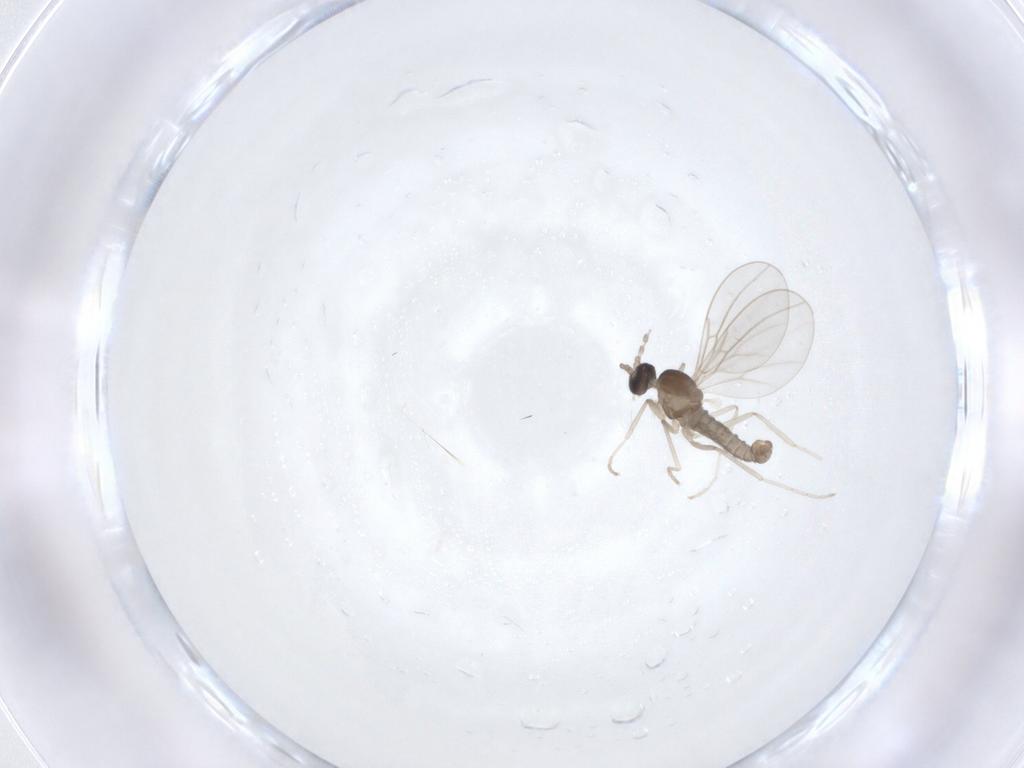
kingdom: Animalia
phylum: Arthropoda
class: Insecta
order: Diptera
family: Cecidomyiidae
